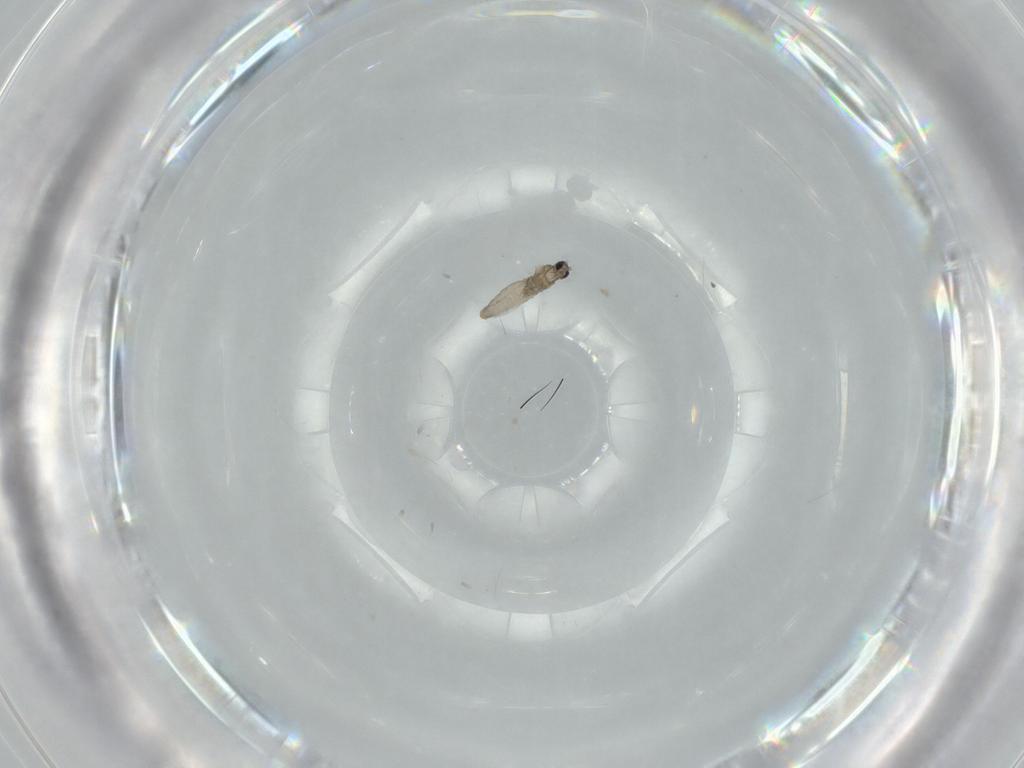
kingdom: Animalia
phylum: Arthropoda
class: Insecta
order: Diptera
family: Cecidomyiidae
